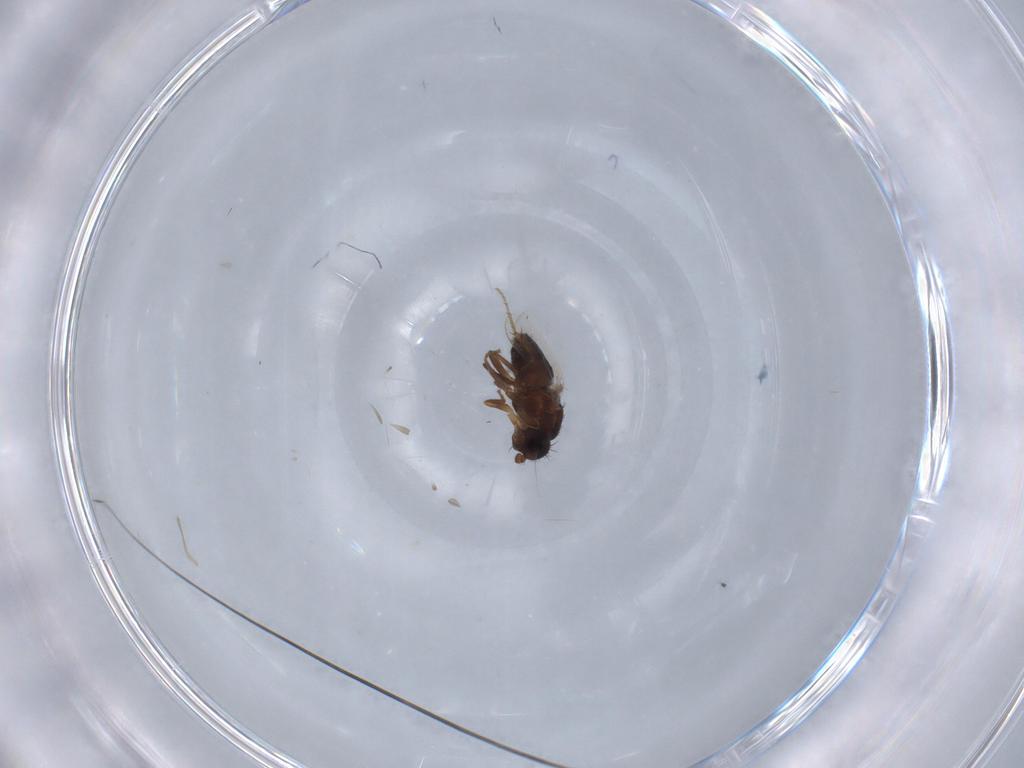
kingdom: Animalia
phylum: Arthropoda
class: Insecta
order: Diptera
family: Sphaeroceridae
